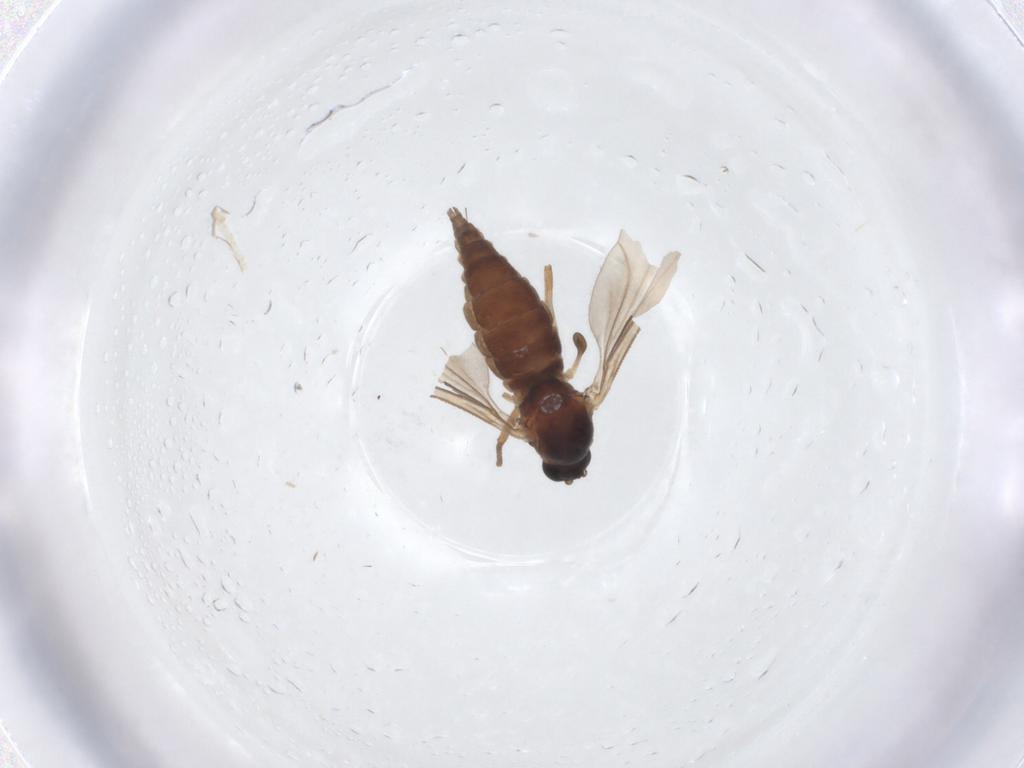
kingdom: Animalia
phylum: Arthropoda
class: Insecta
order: Diptera
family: Sciaridae
